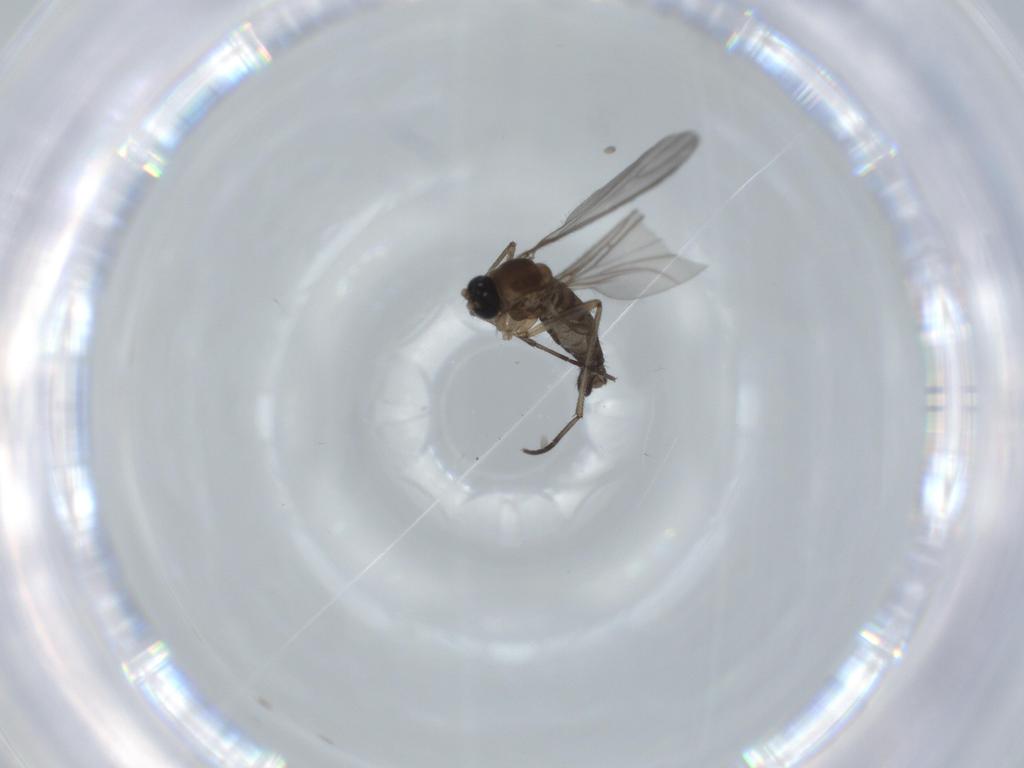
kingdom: Animalia
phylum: Arthropoda
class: Insecta
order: Diptera
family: Sciaridae
